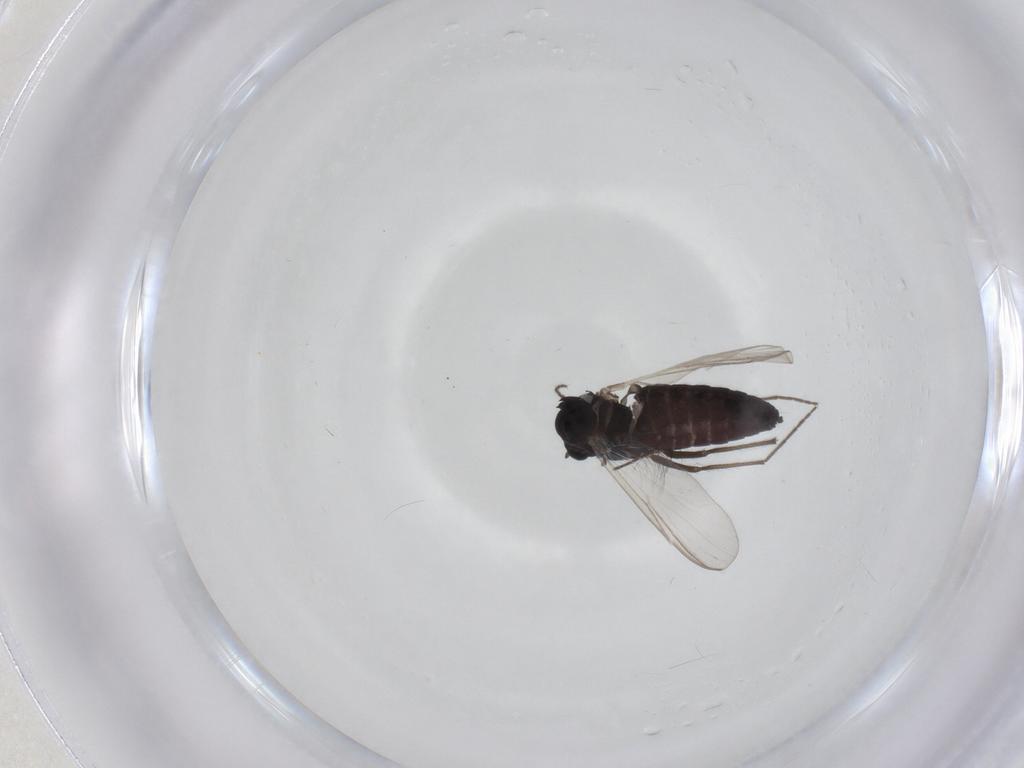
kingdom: Animalia
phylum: Arthropoda
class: Insecta
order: Diptera
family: Chironomidae
